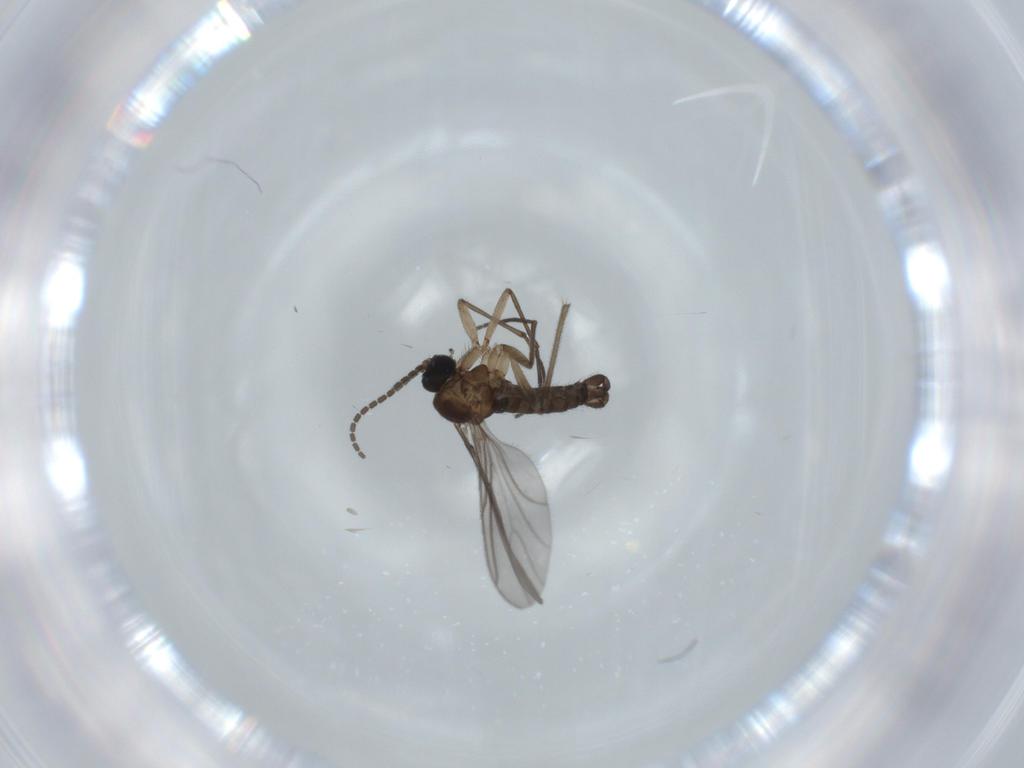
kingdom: Animalia
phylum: Arthropoda
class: Insecta
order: Diptera
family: Sciaridae
